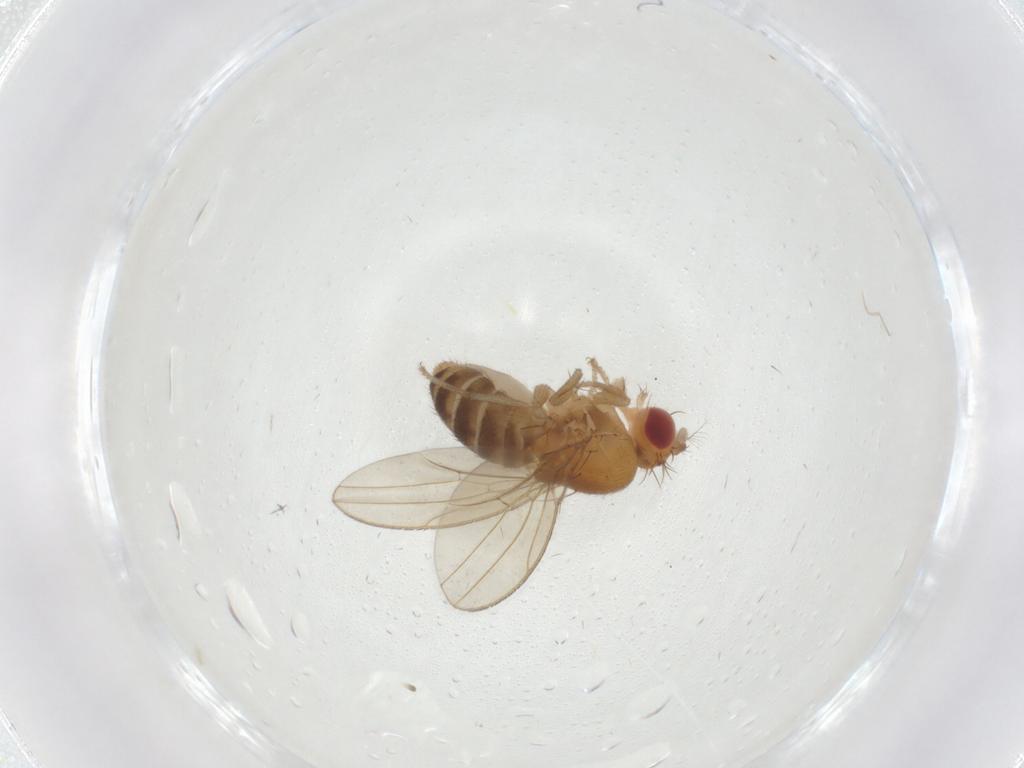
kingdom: Animalia
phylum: Arthropoda
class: Insecta
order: Diptera
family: Drosophilidae
